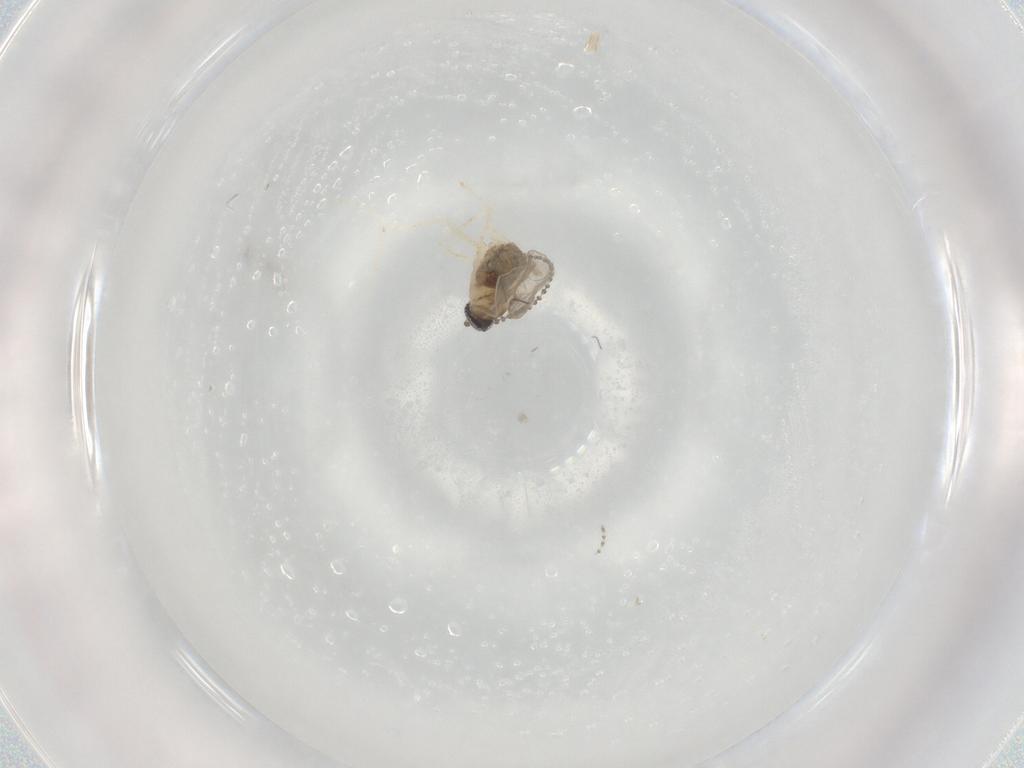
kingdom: Animalia
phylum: Arthropoda
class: Insecta
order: Diptera
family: Cecidomyiidae
